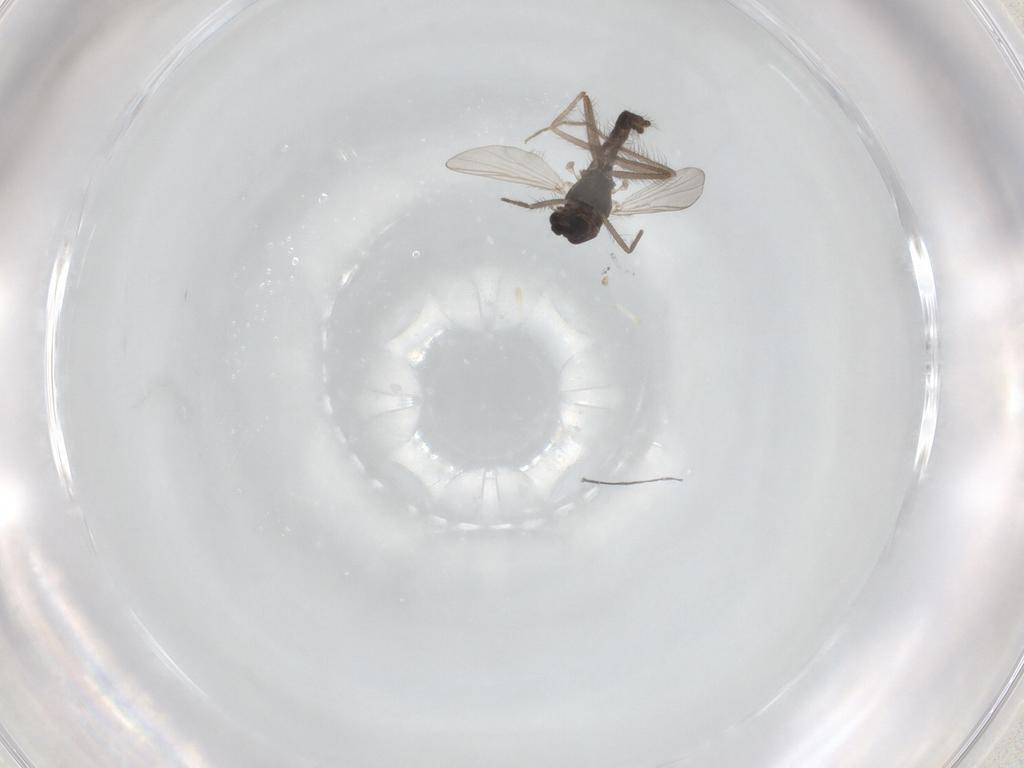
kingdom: Animalia
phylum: Arthropoda
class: Insecta
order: Diptera
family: Chironomidae
